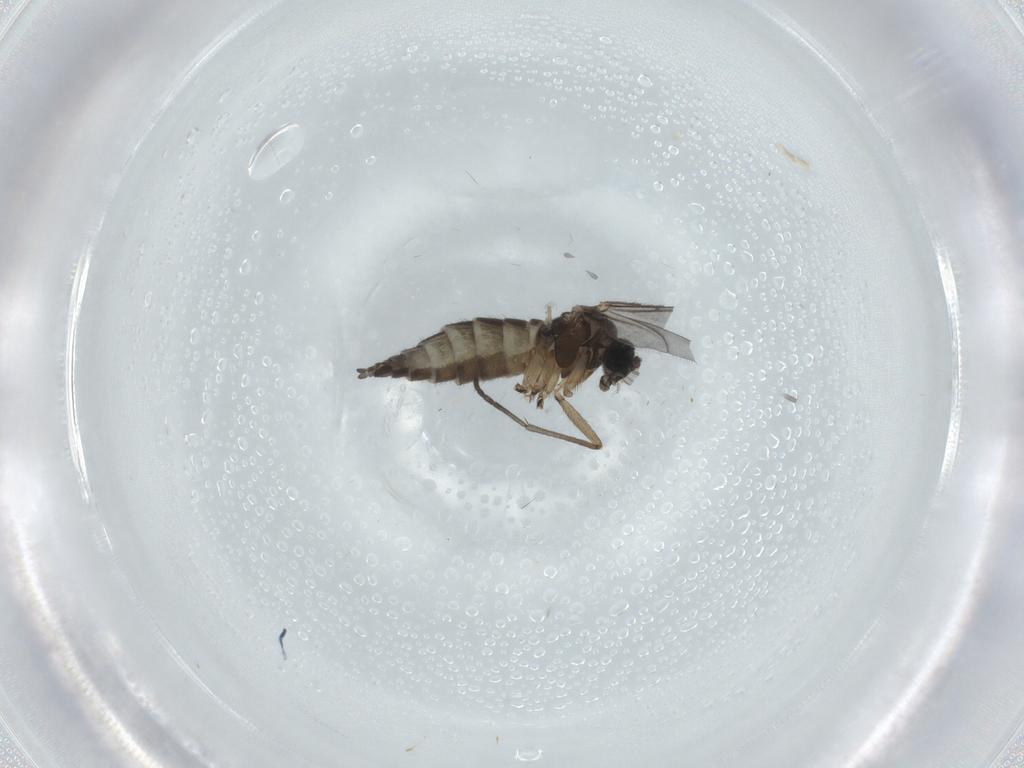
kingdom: Animalia
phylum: Arthropoda
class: Insecta
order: Diptera
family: Sciaridae
